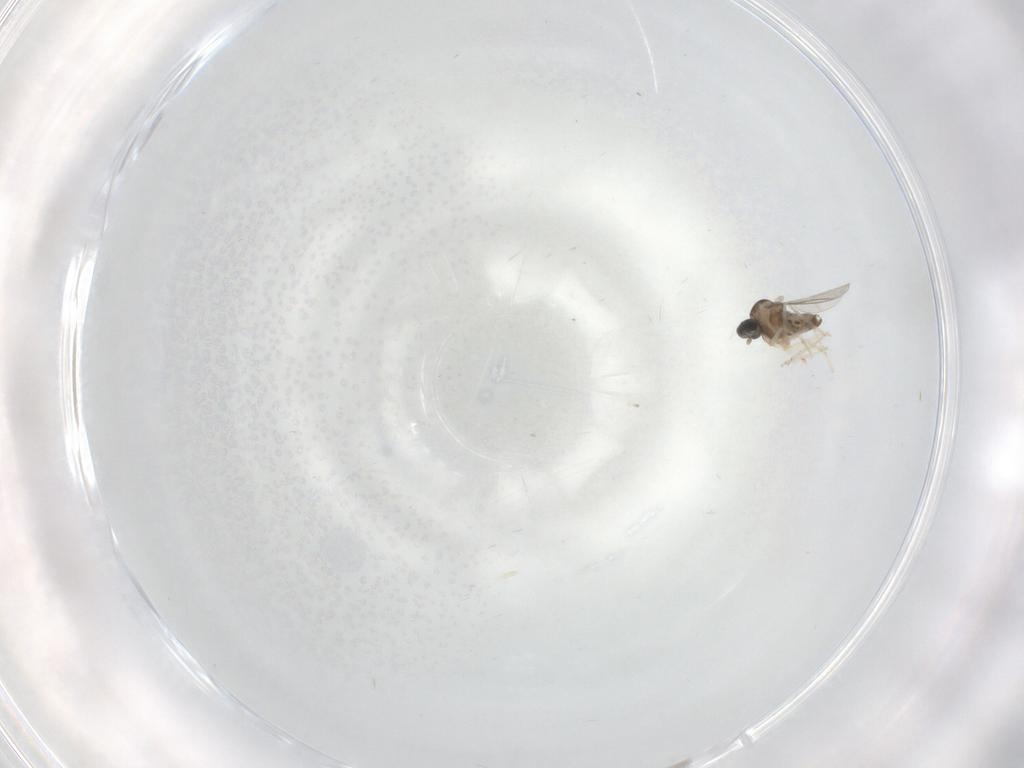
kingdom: Animalia
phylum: Arthropoda
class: Insecta
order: Diptera
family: Cecidomyiidae
